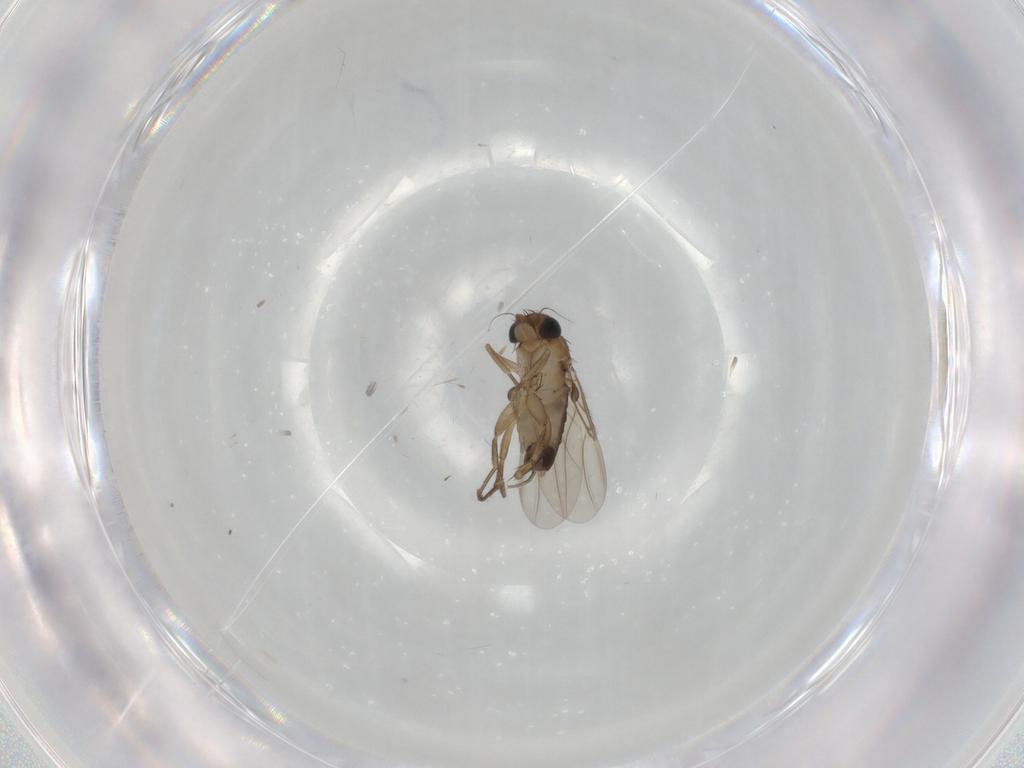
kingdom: Animalia
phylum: Arthropoda
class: Insecta
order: Diptera
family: Phoridae
